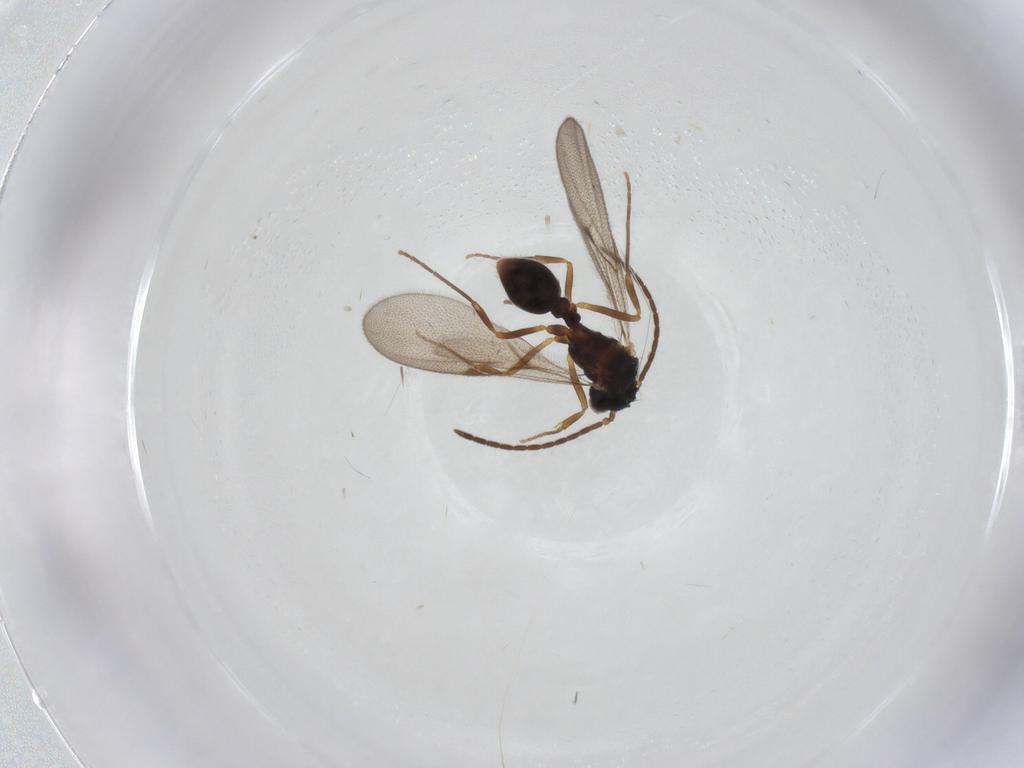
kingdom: Animalia
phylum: Arthropoda
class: Insecta
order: Hymenoptera
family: Formicidae
